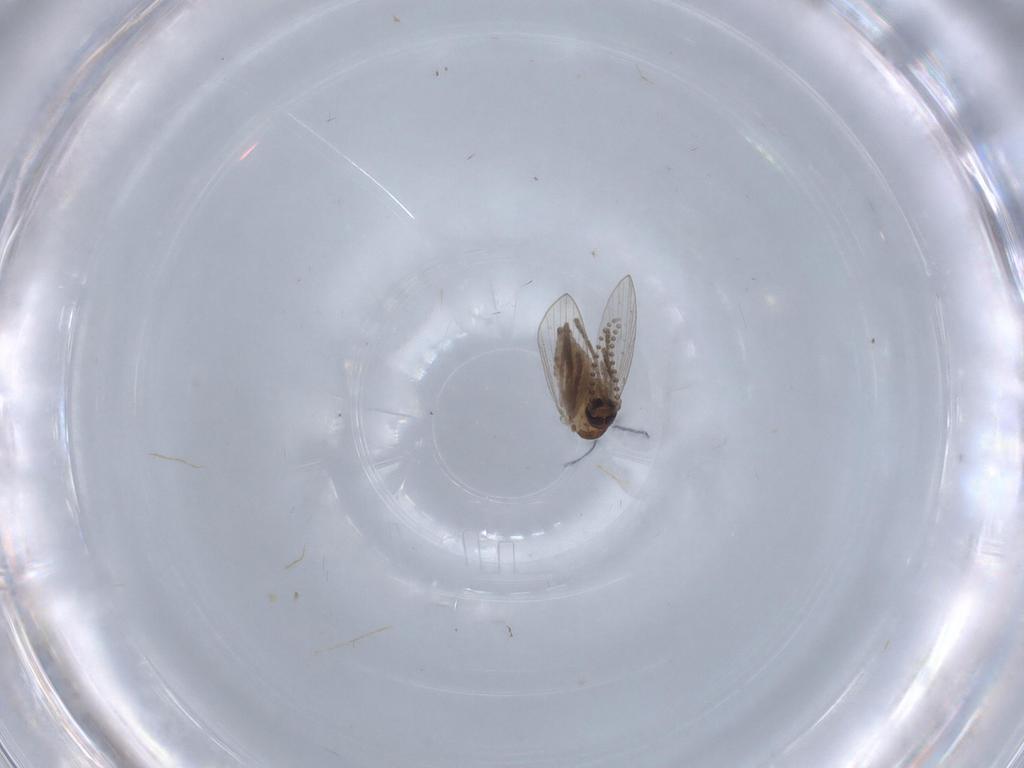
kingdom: Animalia
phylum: Arthropoda
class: Insecta
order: Diptera
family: Psychodidae
